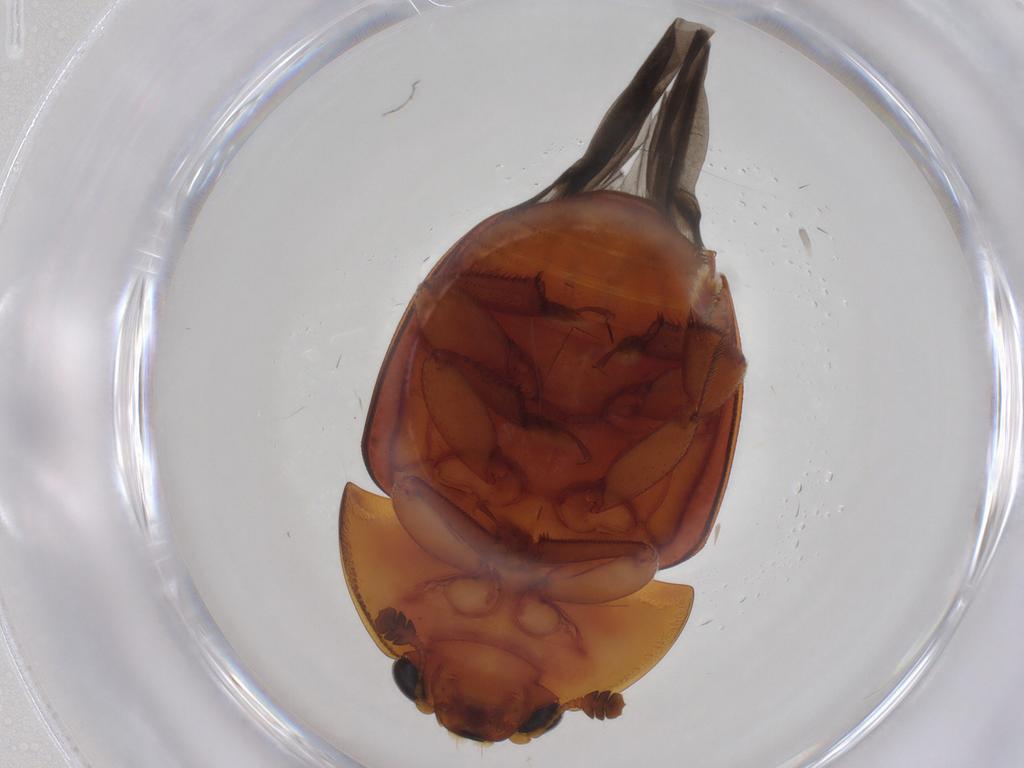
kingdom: Animalia
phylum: Arthropoda
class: Insecta
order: Coleoptera
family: Nitidulidae
